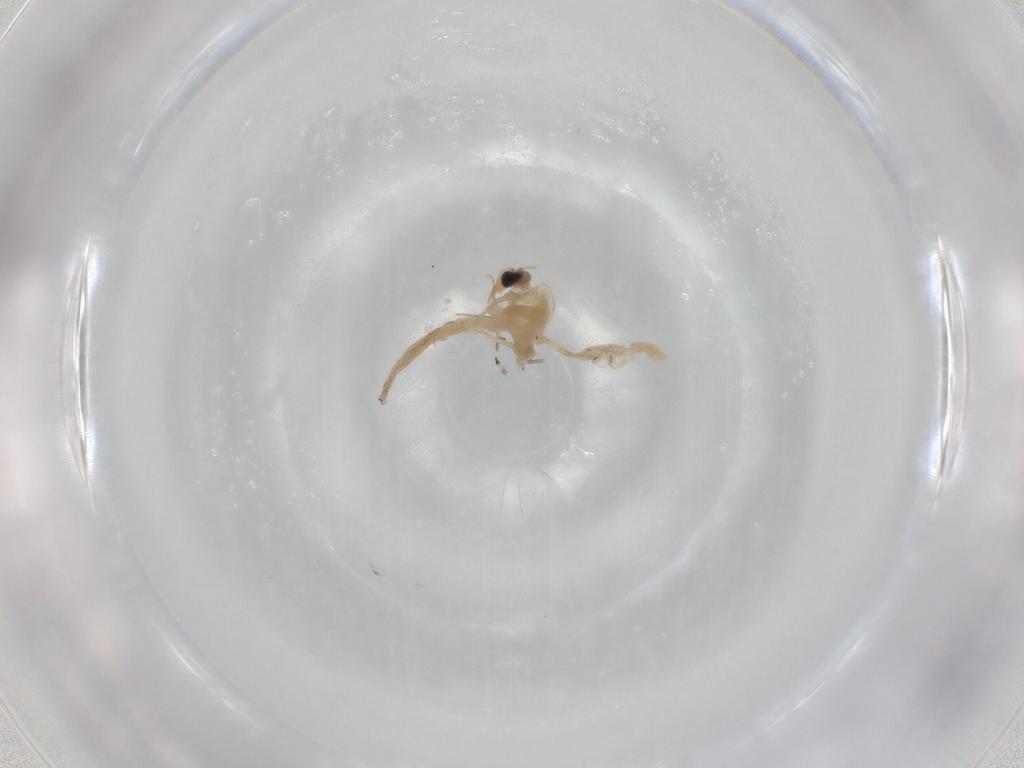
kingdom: Animalia
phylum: Arthropoda
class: Insecta
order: Diptera
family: Chironomidae
